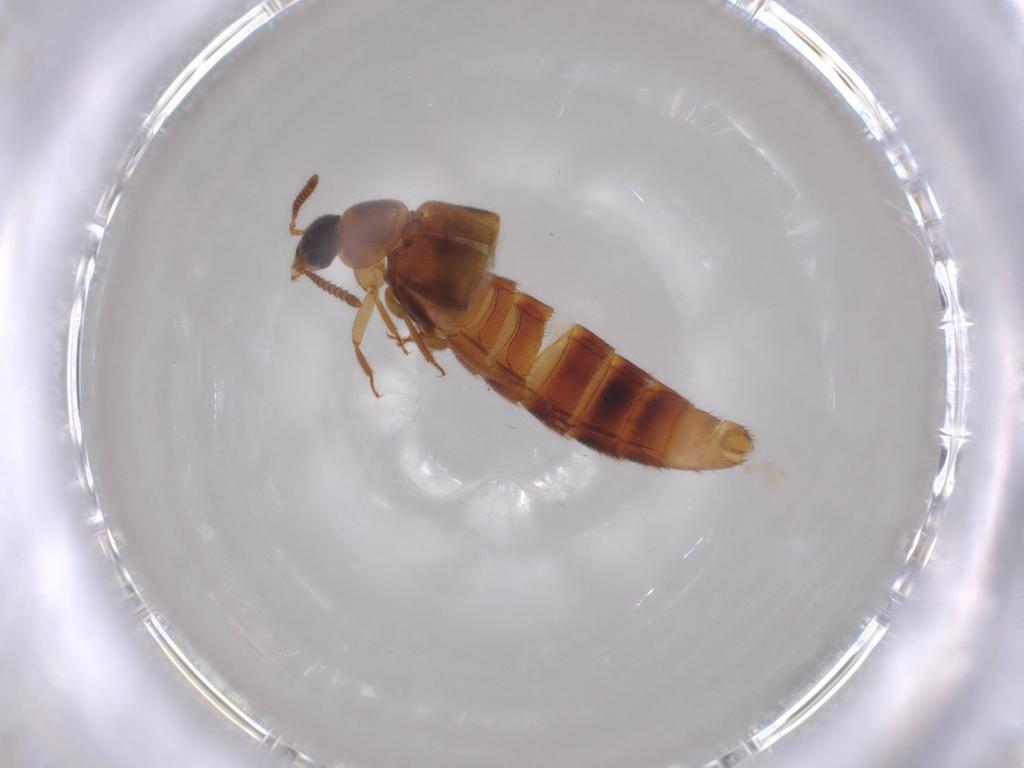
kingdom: Animalia
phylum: Arthropoda
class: Insecta
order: Coleoptera
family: Staphylinidae
